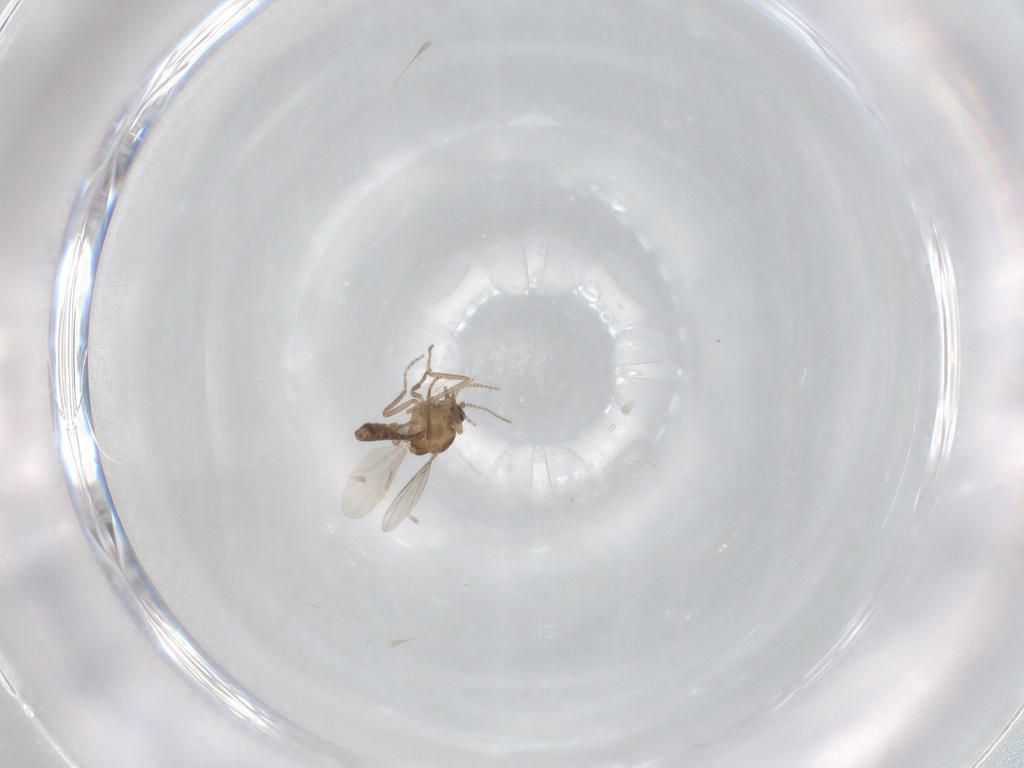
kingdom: Animalia
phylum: Arthropoda
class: Insecta
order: Diptera
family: Ceratopogonidae
